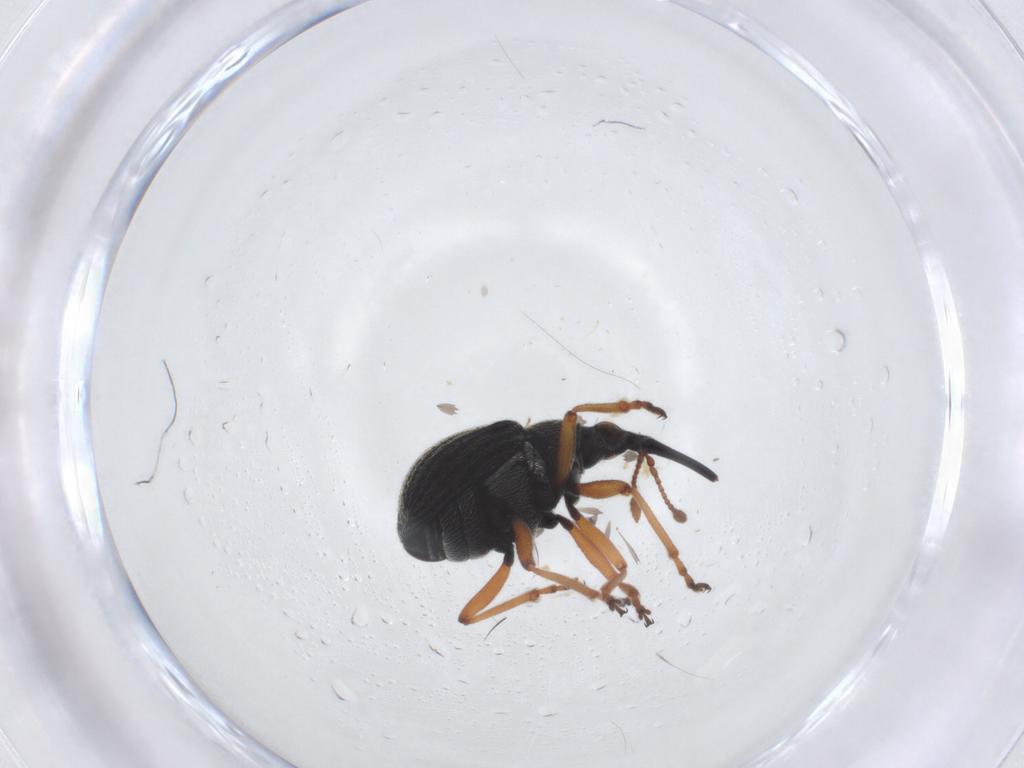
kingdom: Animalia
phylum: Arthropoda
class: Insecta
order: Coleoptera
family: Brentidae
